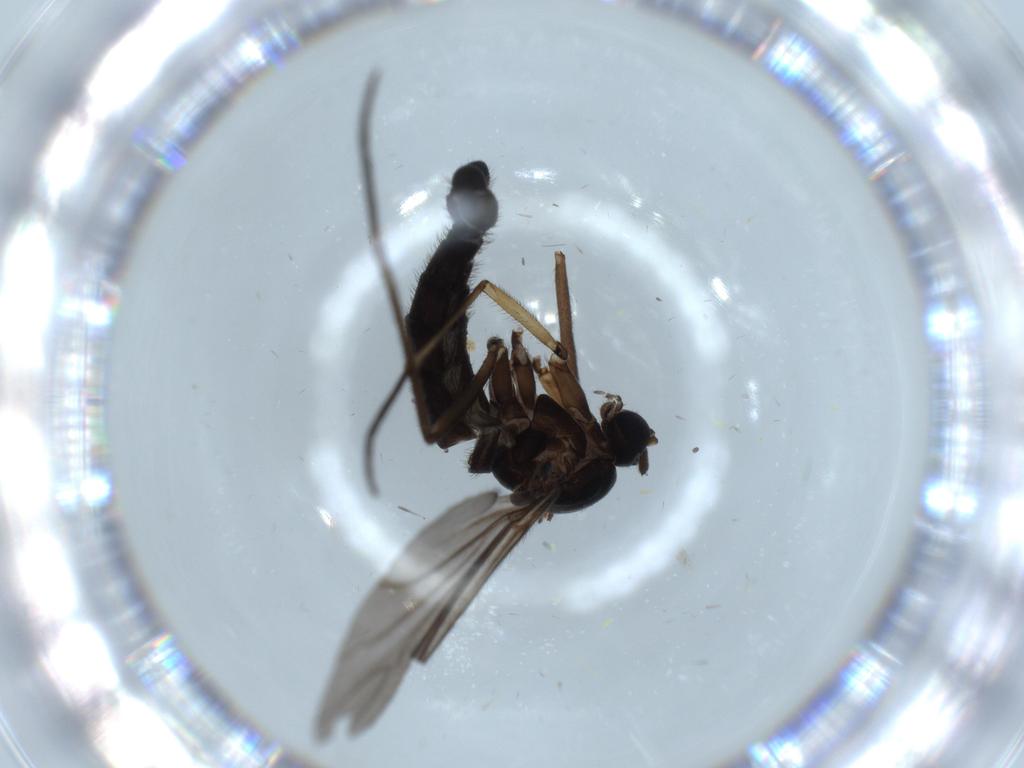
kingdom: Animalia
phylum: Arthropoda
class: Insecta
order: Diptera
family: Sciaridae
